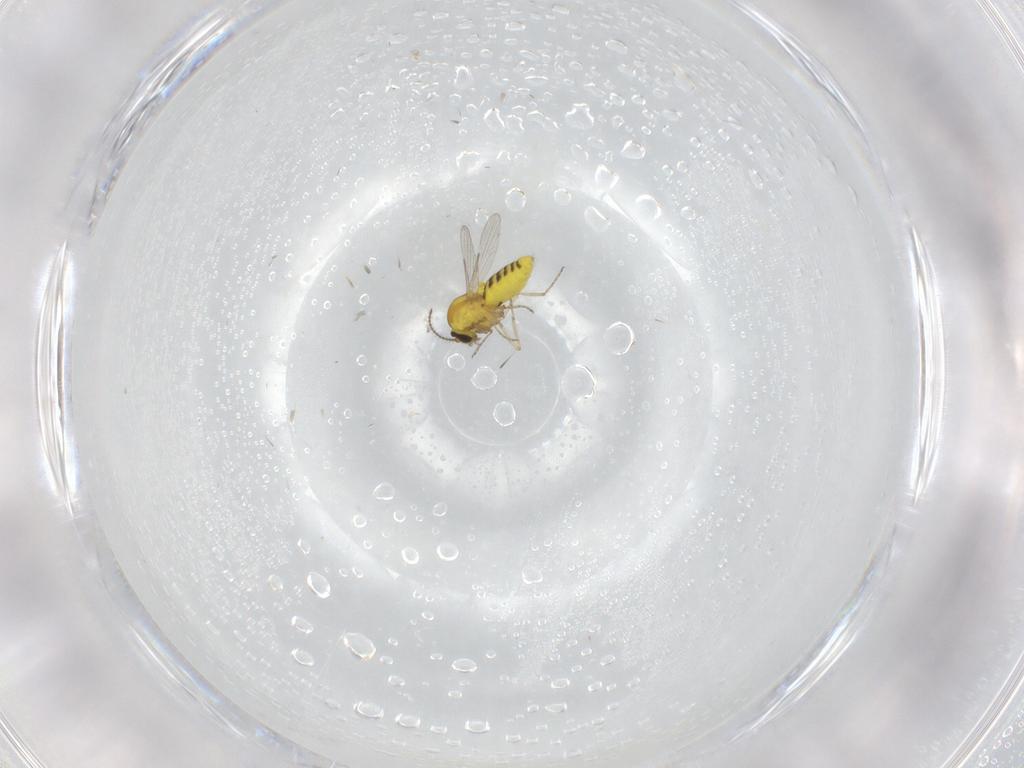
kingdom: Animalia
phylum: Arthropoda
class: Insecta
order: Diptera
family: Ceratopogonidae
